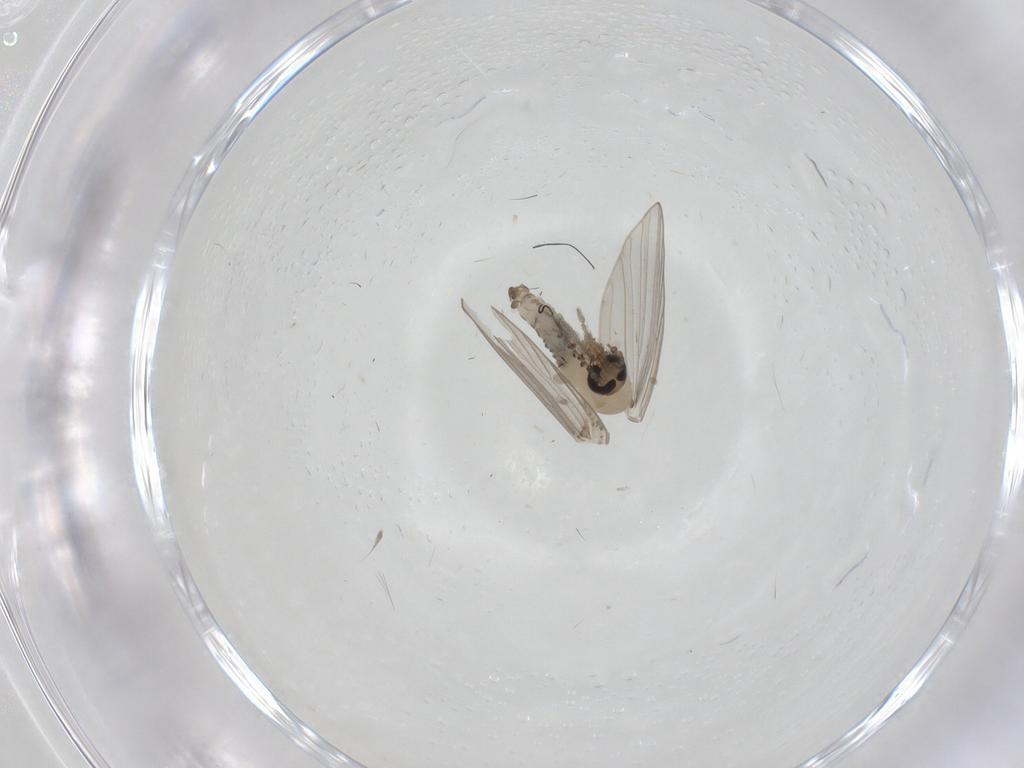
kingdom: Animalia
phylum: Arthropoda
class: Insecta
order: Diptera
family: Psychodidae
